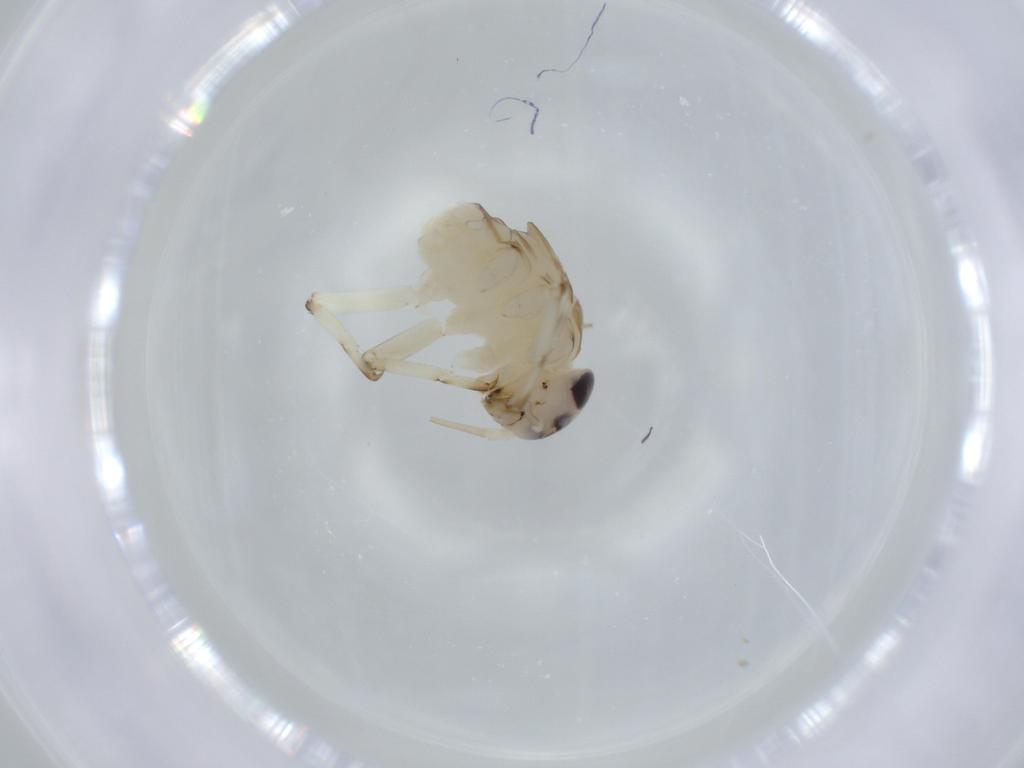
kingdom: Animalia
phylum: Arthropoda
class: Insecta
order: Ephemeroptera
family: Baetidae
